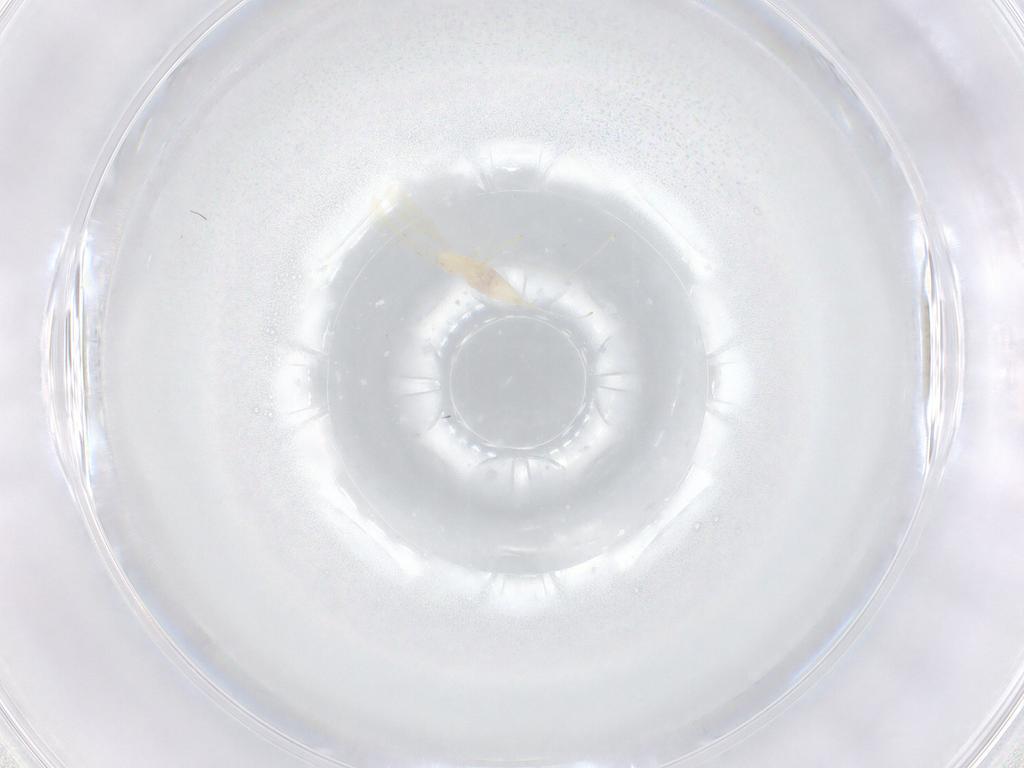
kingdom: Animalia
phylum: Arthropoda
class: Insecta
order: Diptera
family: Cecidomyiidae
